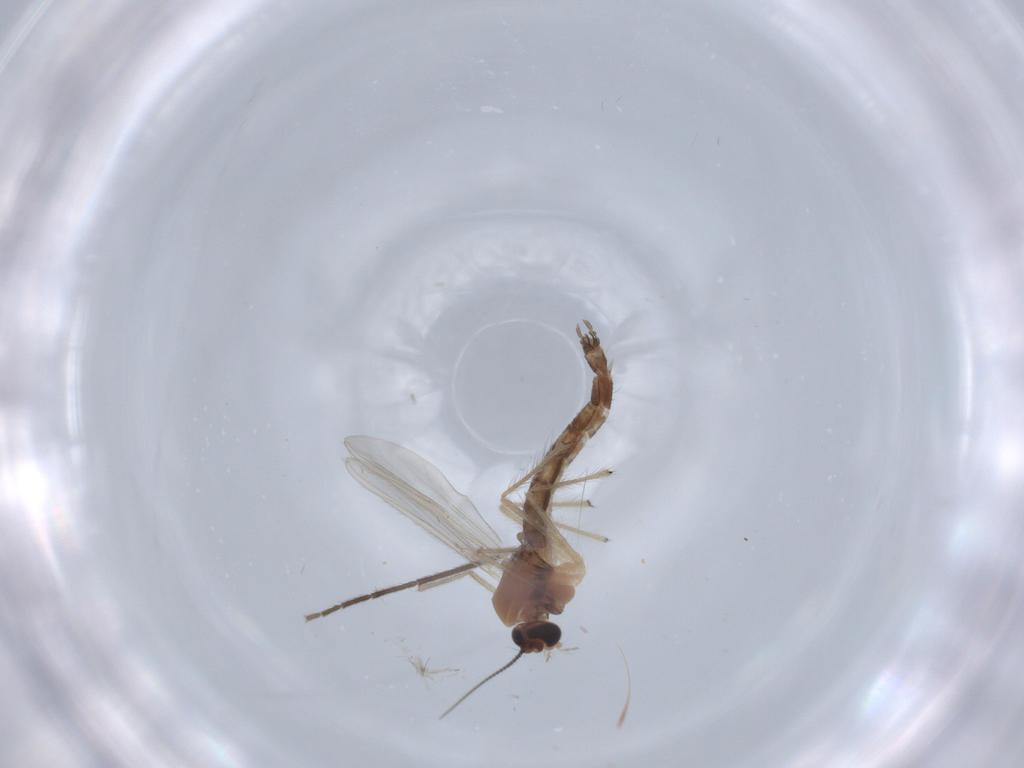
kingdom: Animalia
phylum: Arthropoda
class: Insecta
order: Diptera
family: Chironomidae
